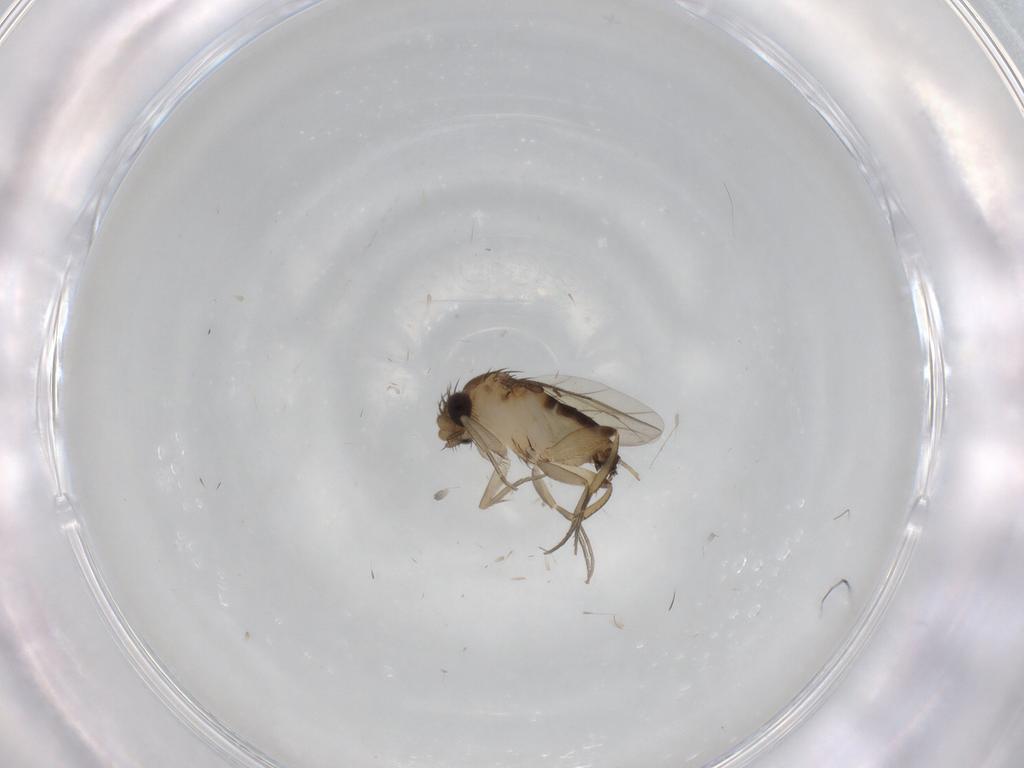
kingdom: Animalia
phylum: Arthropoda
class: Insecta
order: Diptera
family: Phoridae
